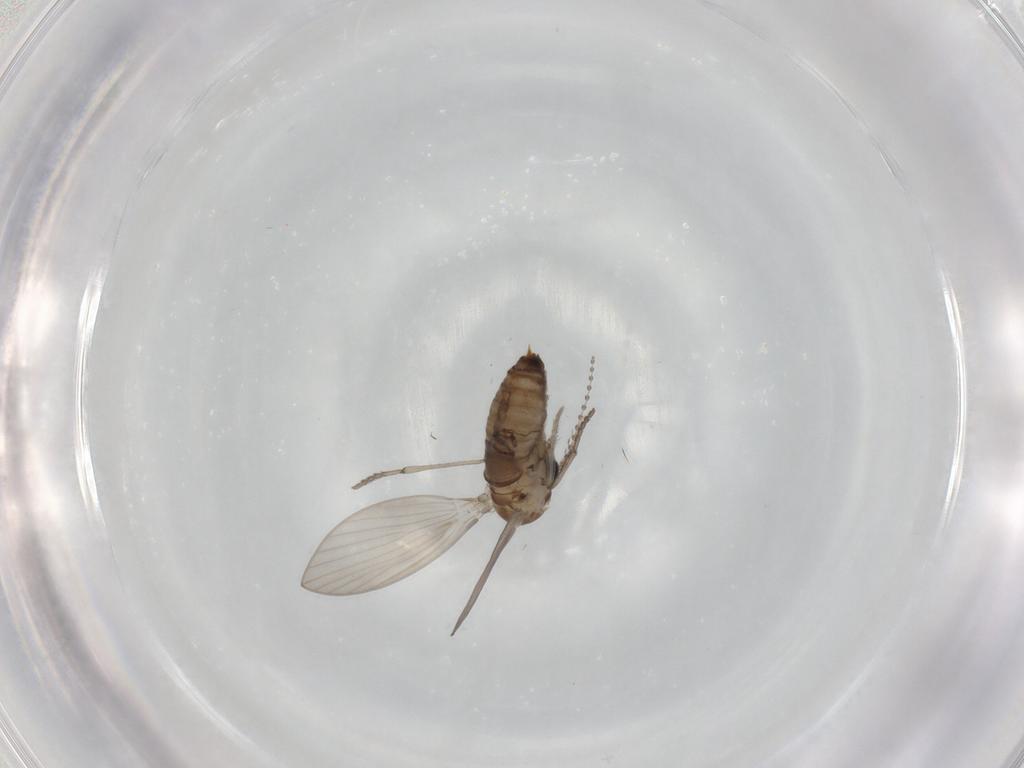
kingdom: Animalia
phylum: Arthropoda
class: Insecta
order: Diptera
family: Psychodidae
